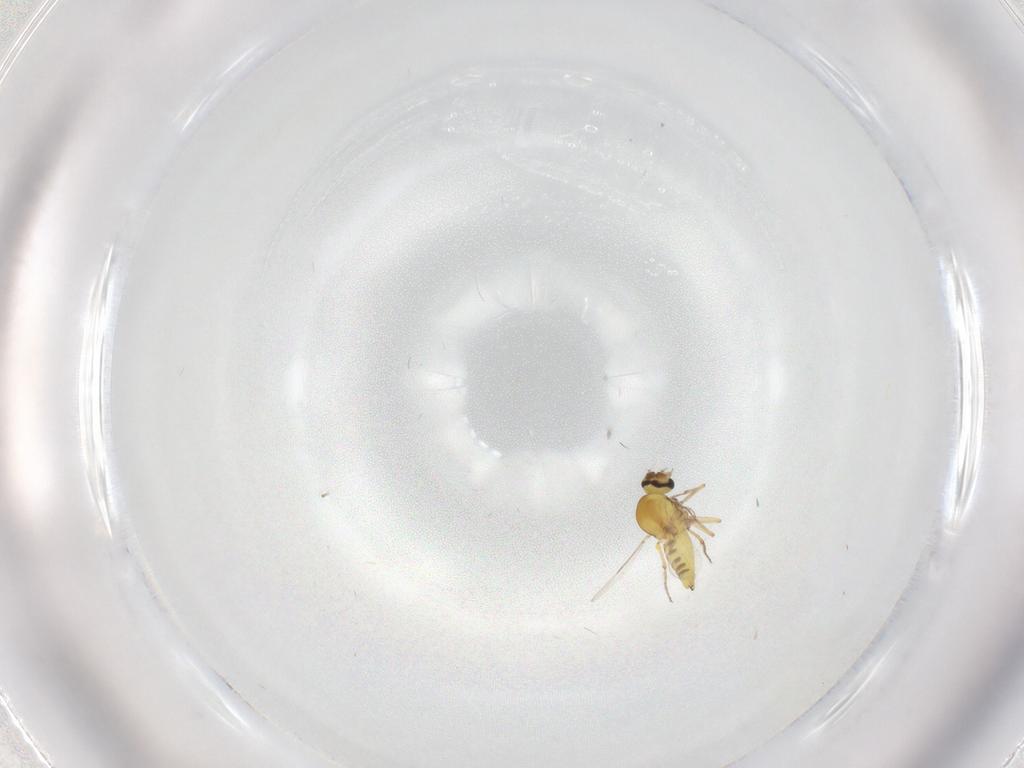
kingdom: Animalia
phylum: Arthropoda
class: Insecta
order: Diptera
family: Ceratopogonidae
